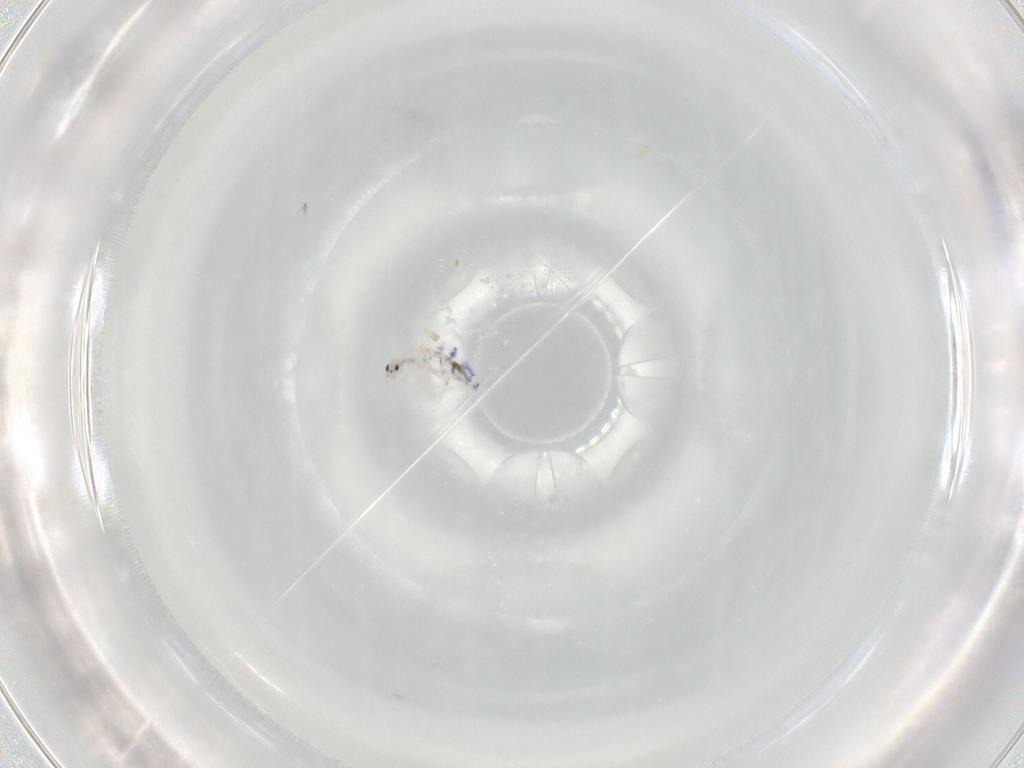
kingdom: Animalia
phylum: Arthropoda
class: Collembola
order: Entomobryomorpha
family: Entomobryidae
